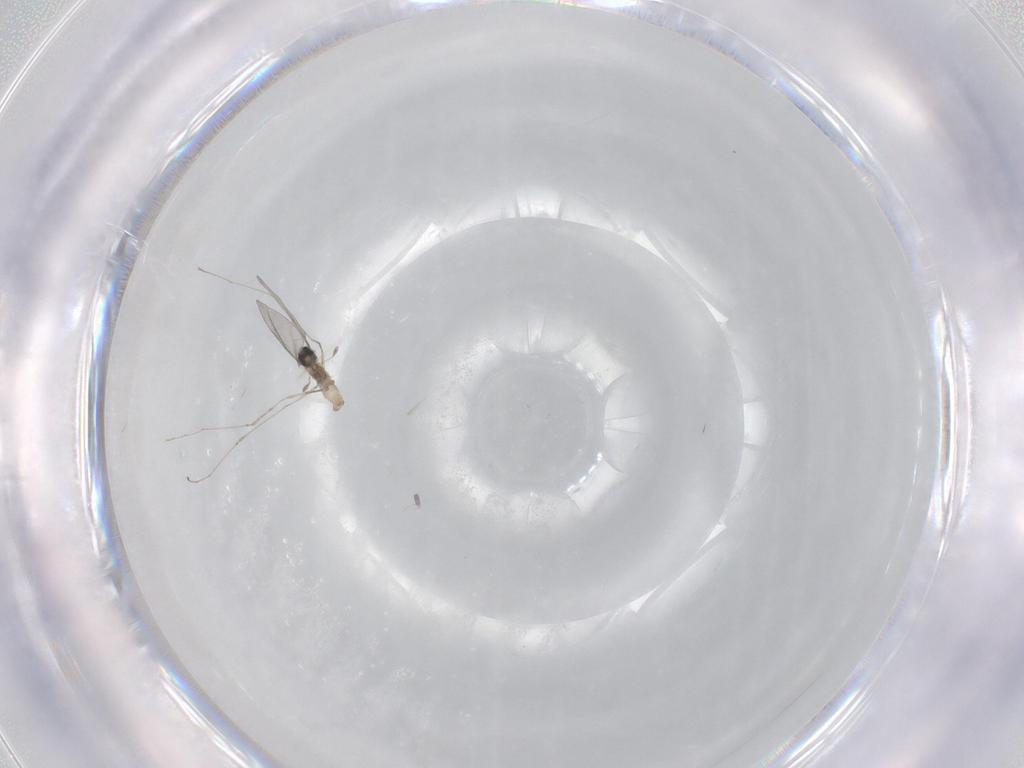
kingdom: Animalia
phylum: Arthropoda
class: Insecta
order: Diptera
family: Cecidomyiidae
